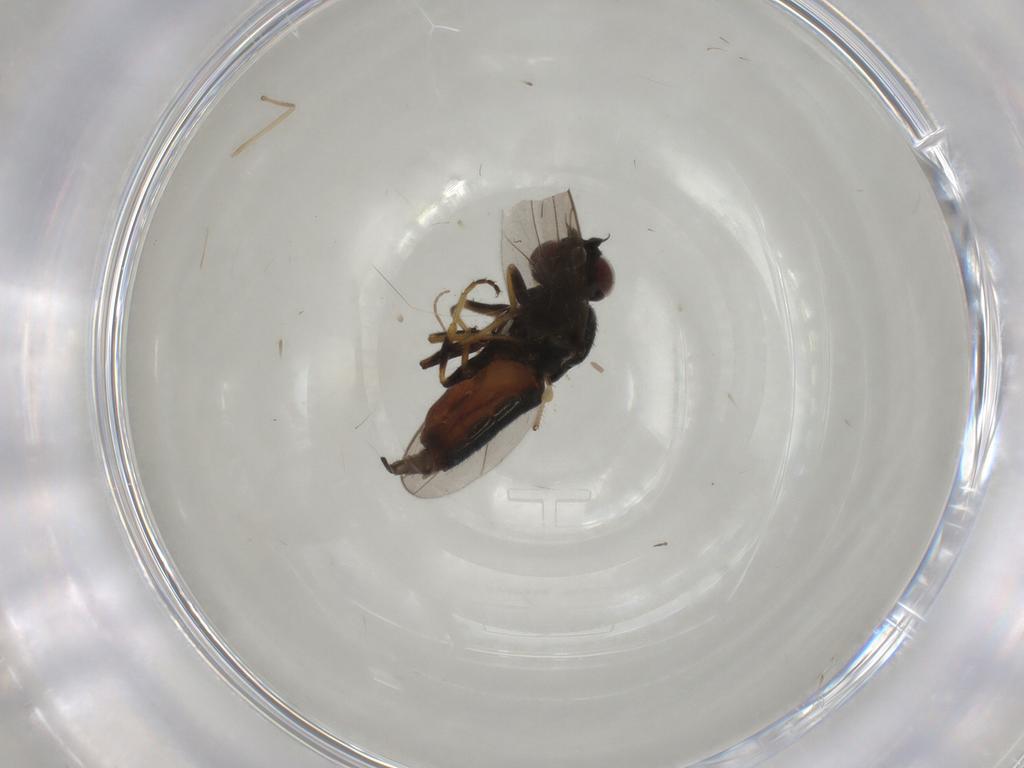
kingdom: Animalia
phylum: Arthropoda
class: Insecta
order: Diptera
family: Chloropidae
